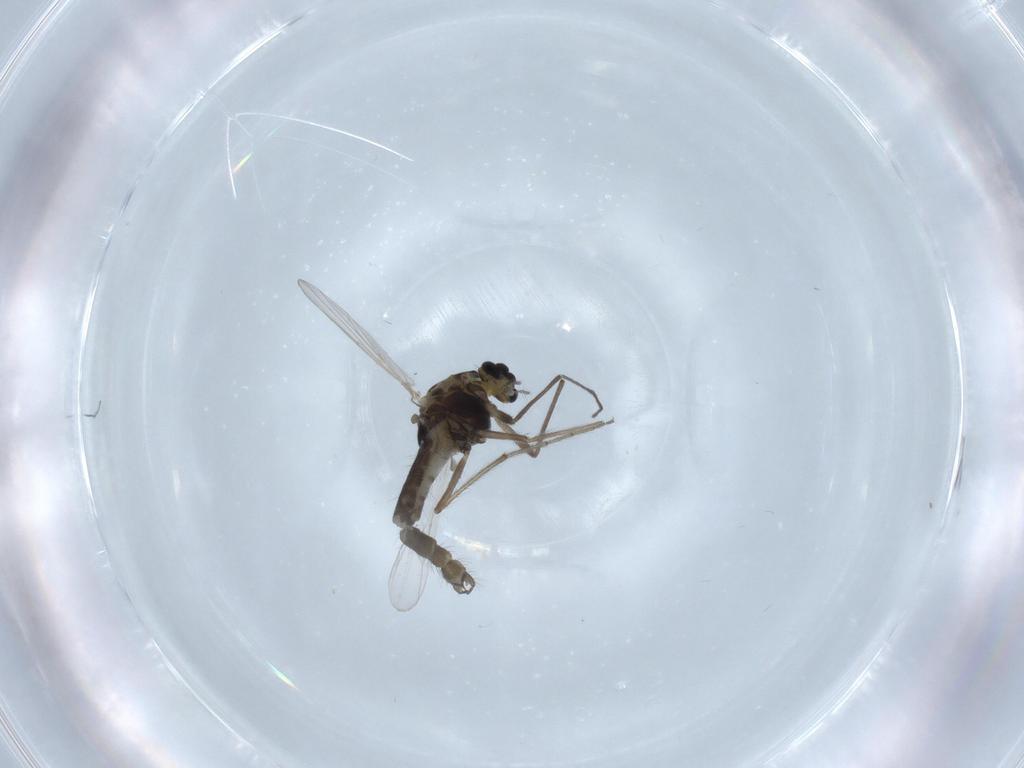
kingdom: Animalia
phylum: Arthropoda
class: Insecta
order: Diptera
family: Chironomidae
